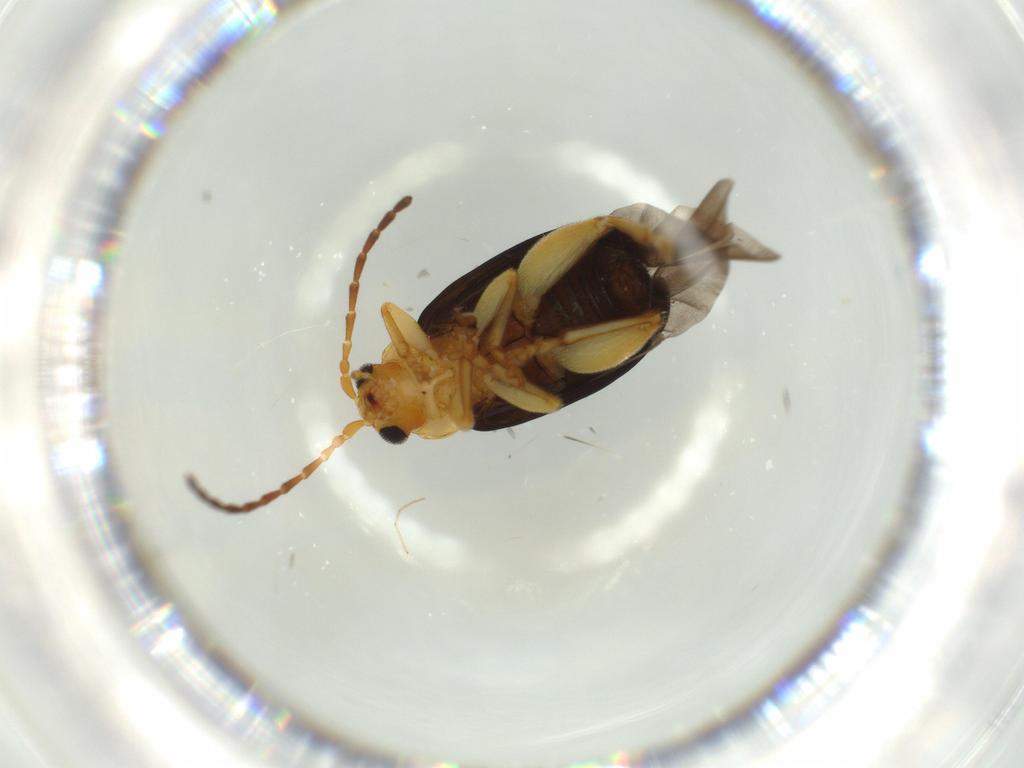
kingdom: Animalia
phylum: Arthropoda
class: Insecta
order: Coleoptera
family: Chrysomelidae
